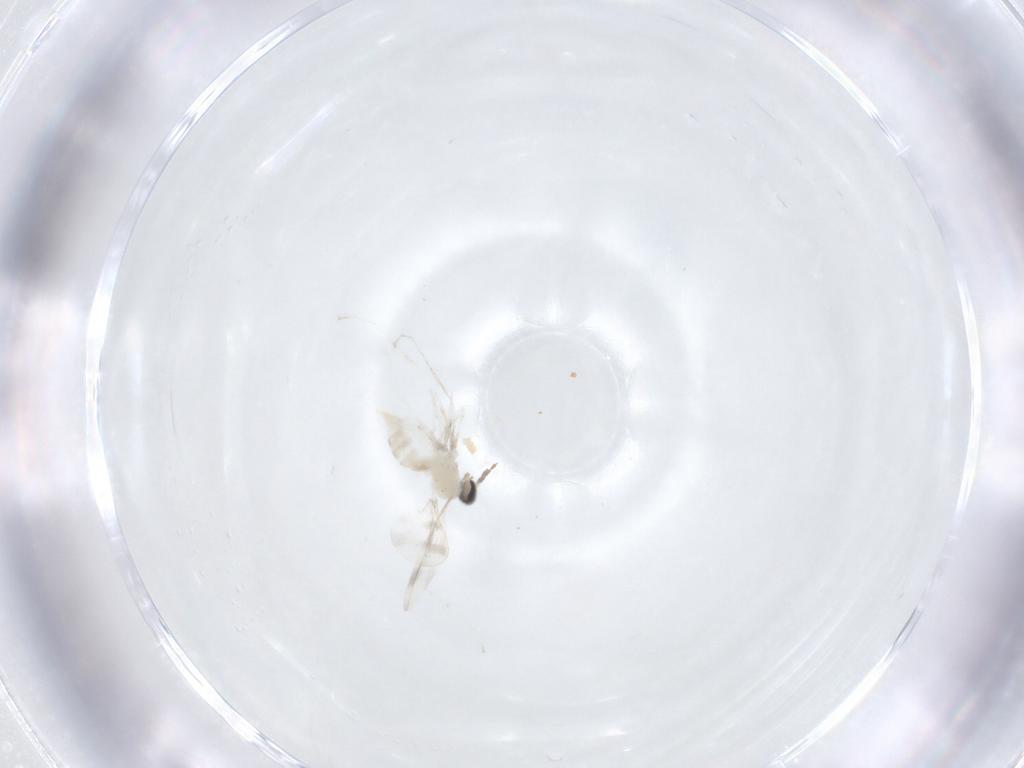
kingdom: Animalia
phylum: Arthropoda
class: Insecta
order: Diptera
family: Cecidomyiidae
